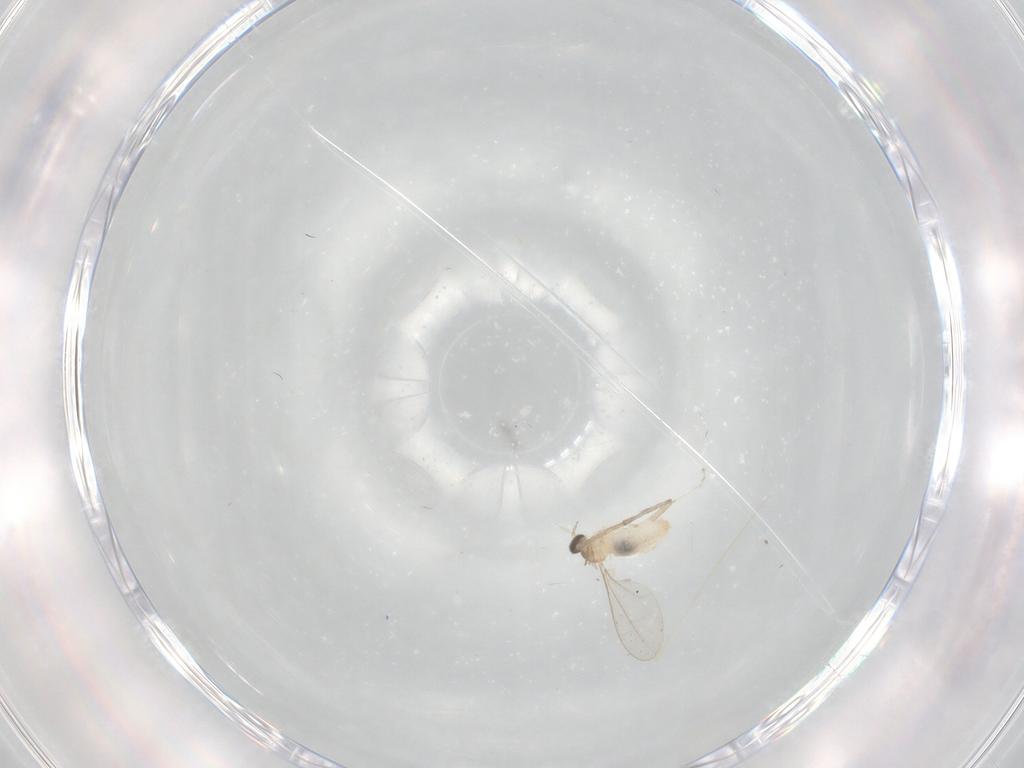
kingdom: Animalia
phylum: Arthropoda
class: Insecta
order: Diptera
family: Psychodidae
